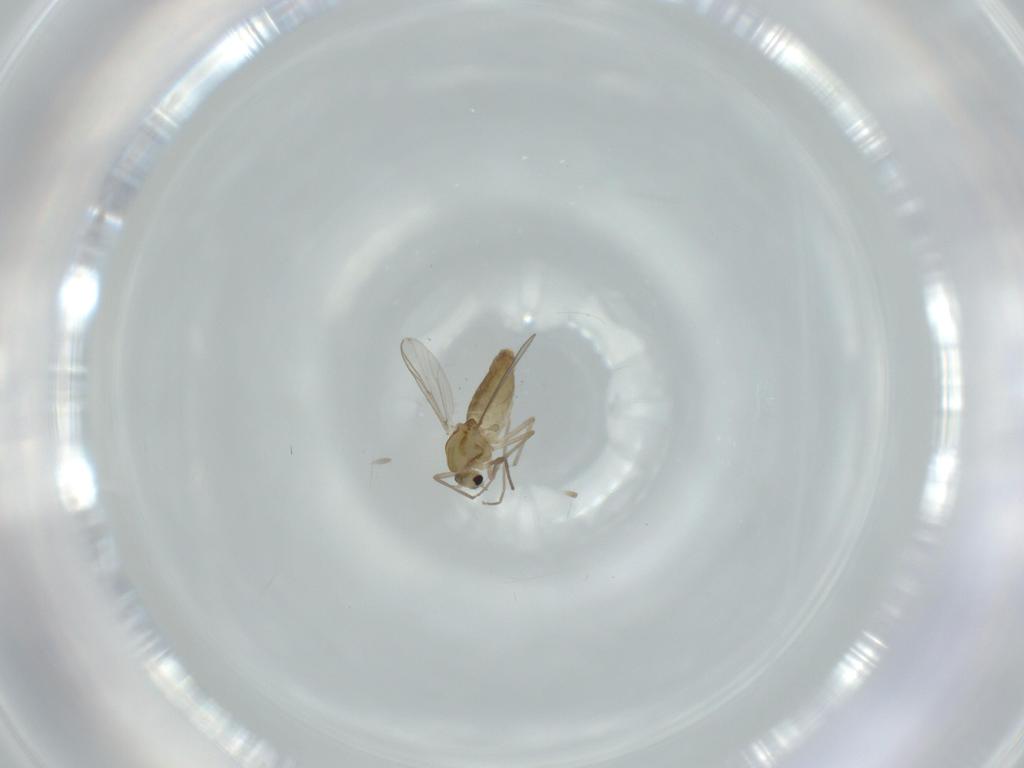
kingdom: Animalia
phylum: Arthropoda
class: Insecta
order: Diptera
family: Chironomidae
